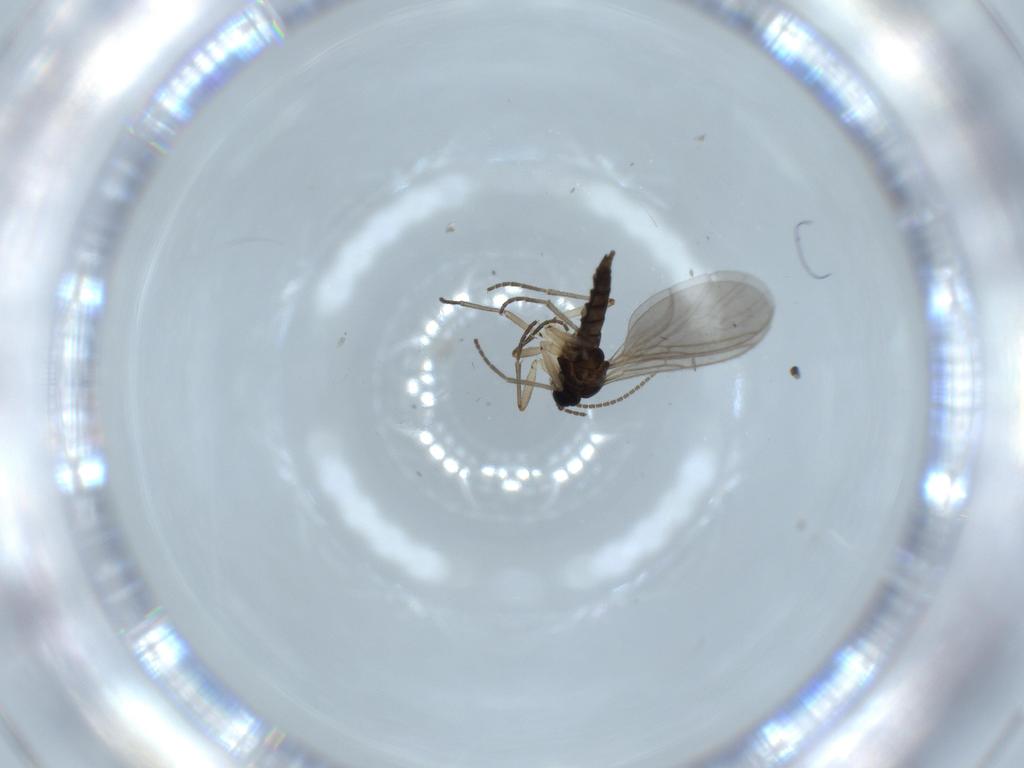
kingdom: Animalia
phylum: Arthropoda
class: Insecta
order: Diptera
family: Sciaridae
